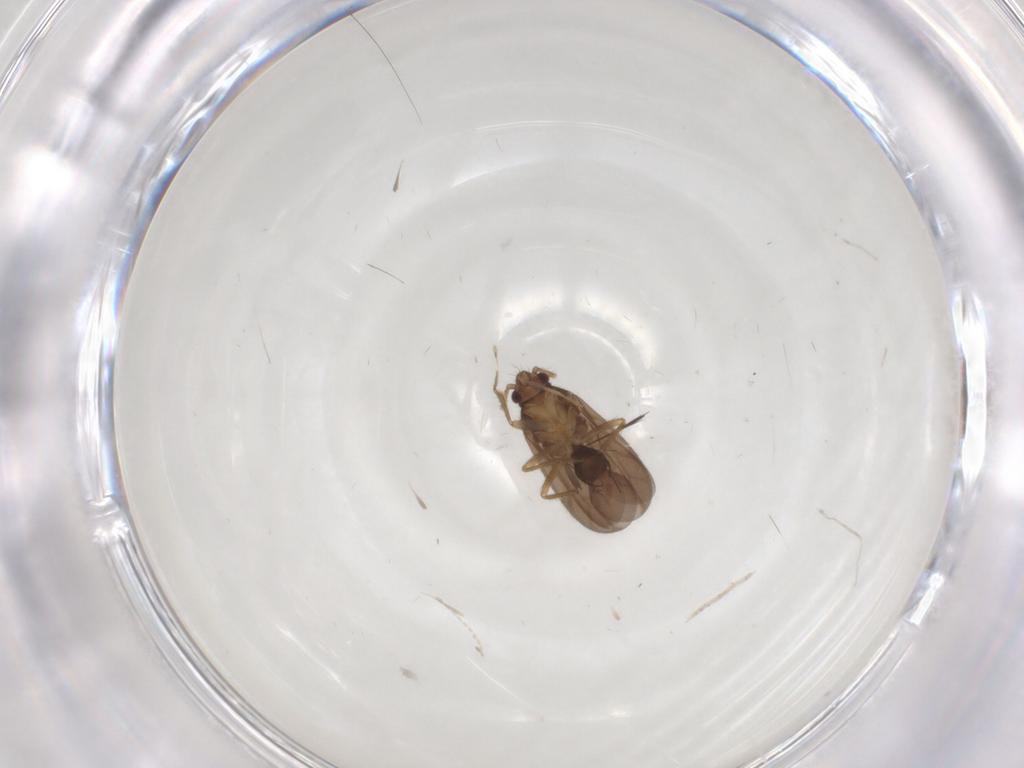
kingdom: Animalia
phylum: Arthropoda
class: Insecta
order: Hemiptera
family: Ceratocombidae
